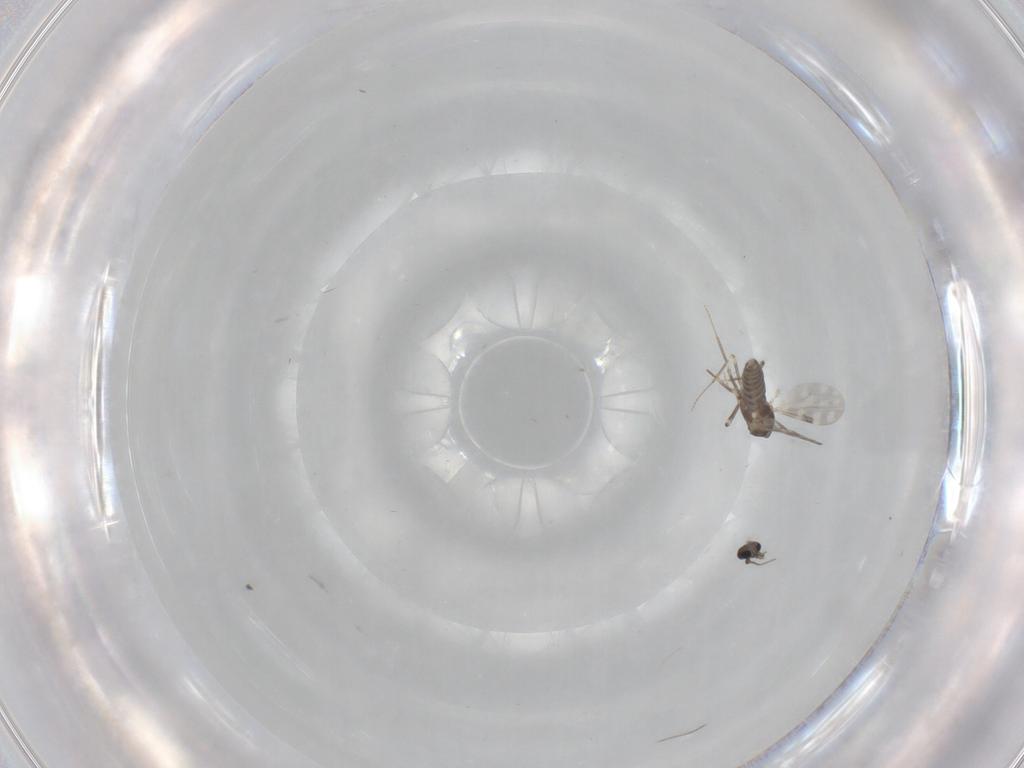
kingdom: Animalia
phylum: Arthropoda
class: Insecta
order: Diptera
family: Ceratopogonidae
